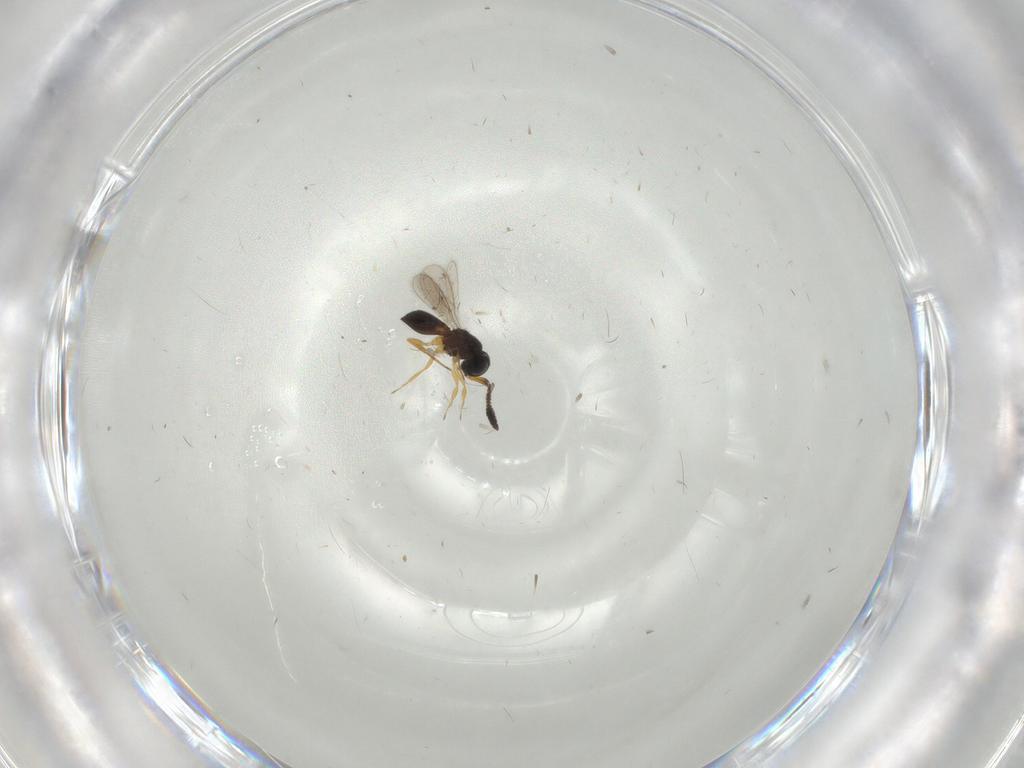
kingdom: Animalia
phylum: Arthropoda
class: Insecta
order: Hymenoptera
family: Scelionidae
